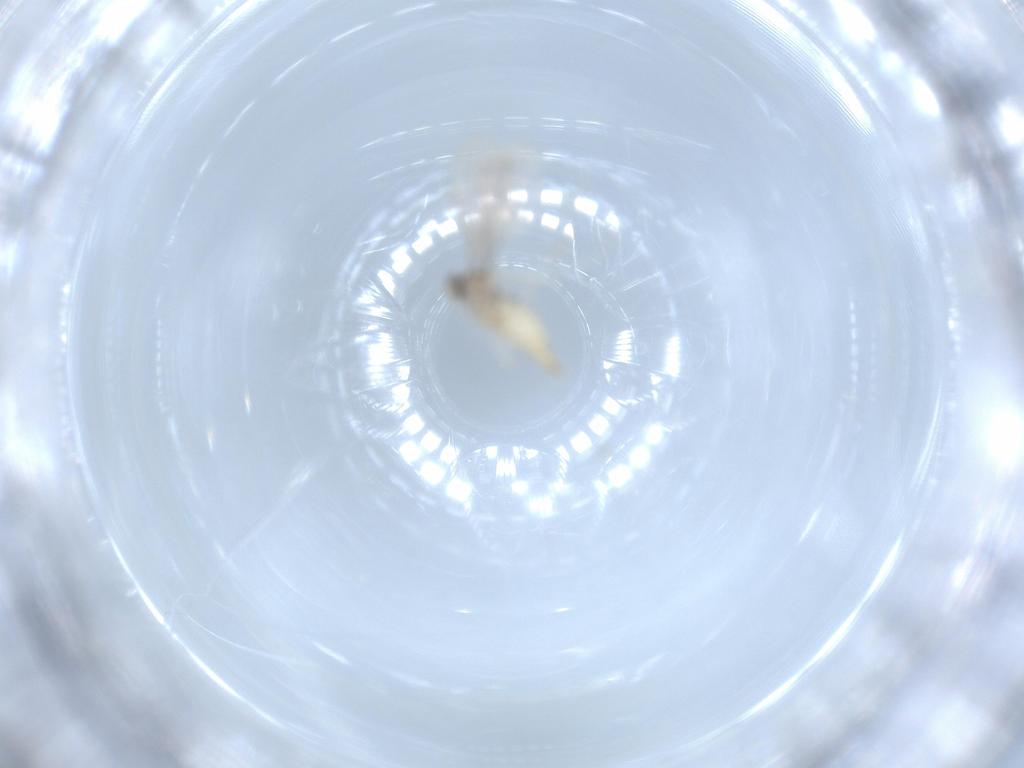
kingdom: Animalia
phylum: Arthropoda
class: Insecta
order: Diptera
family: Cecidomyiidae
